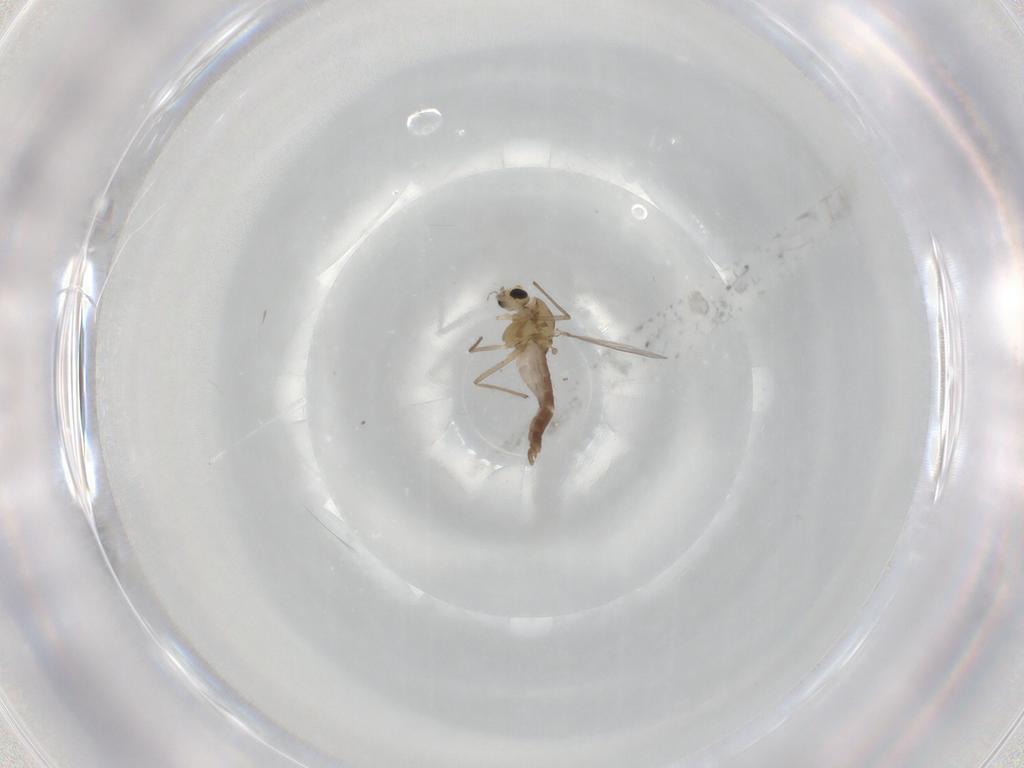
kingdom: Animalia
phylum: Arthropoda
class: Insecta
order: Diptera
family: Chironomidae
